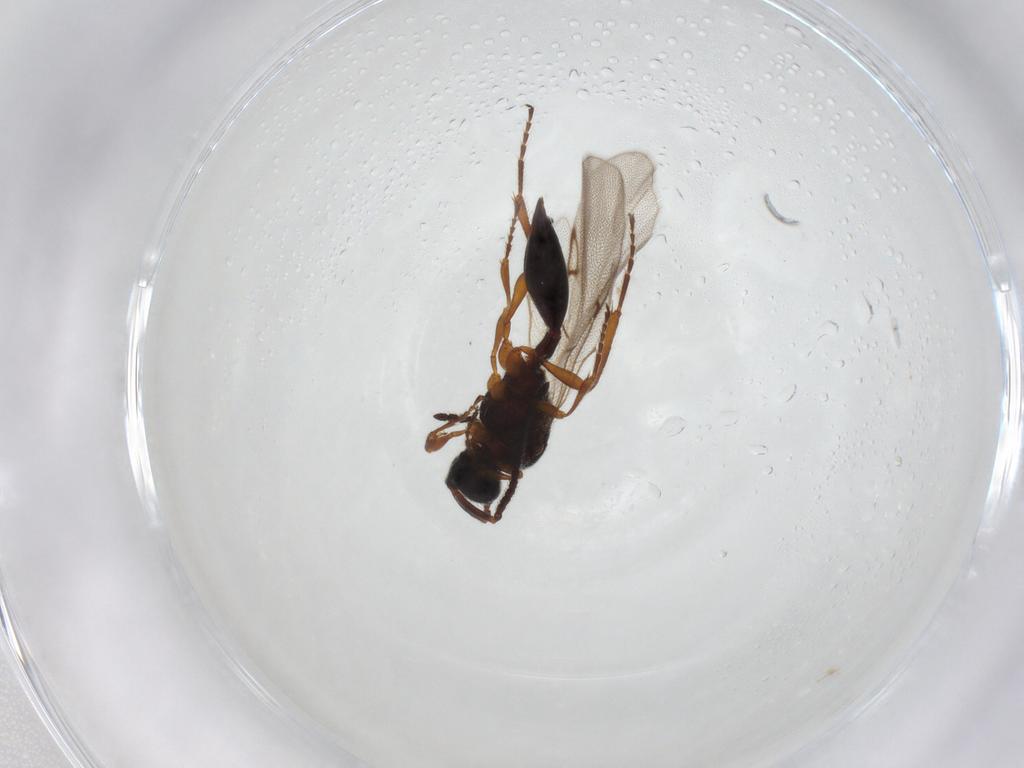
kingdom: Animalia
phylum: Arthropoda
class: Insecta
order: Hymenoptera
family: Diapriidae
